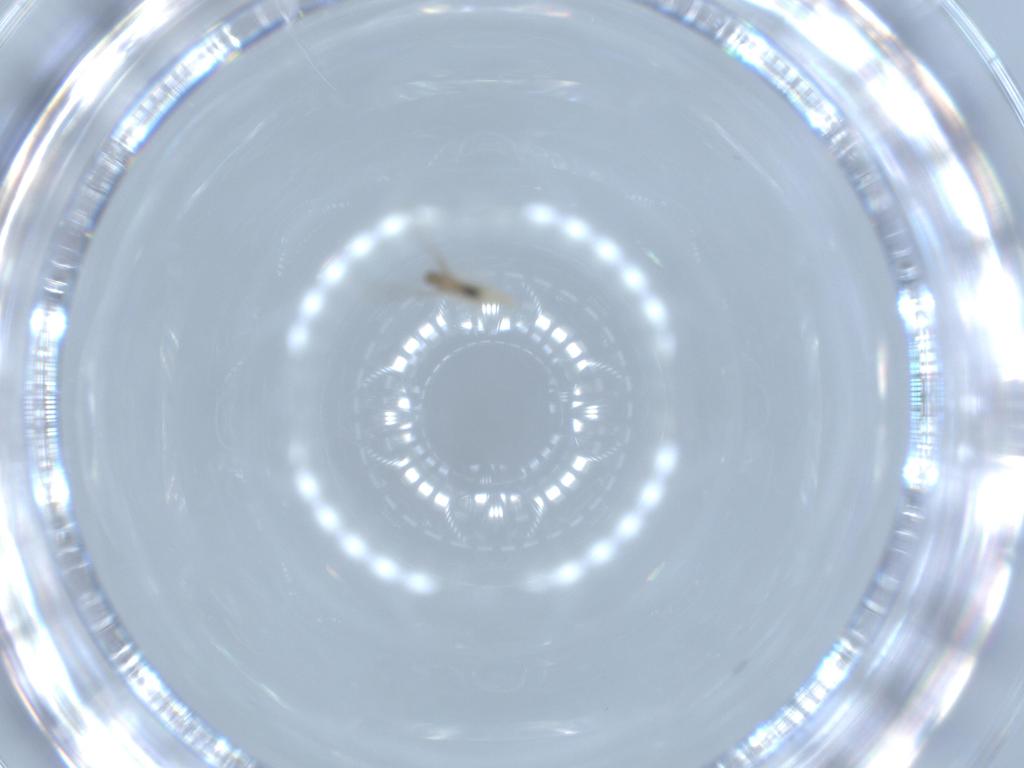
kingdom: Animalia
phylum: Arthropoda
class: Insecta
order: Diptera
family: Cecidomyiidae
